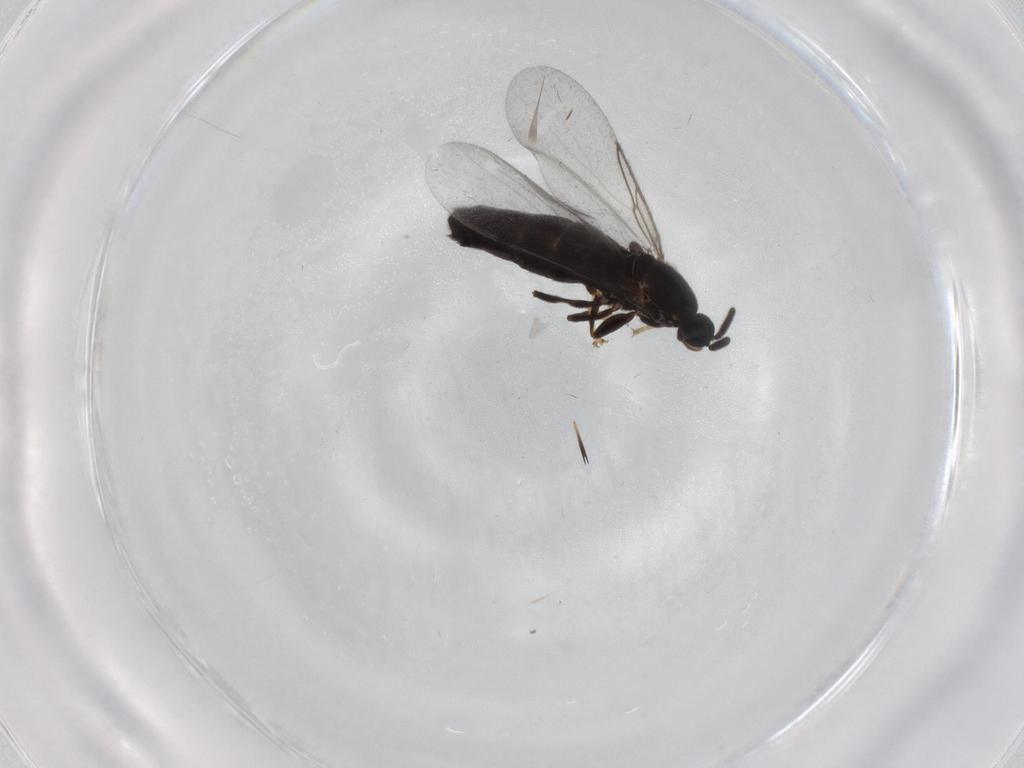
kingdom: Animalia
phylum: Arthropoda
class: Insecta
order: Diptera
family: Scatopsidae
